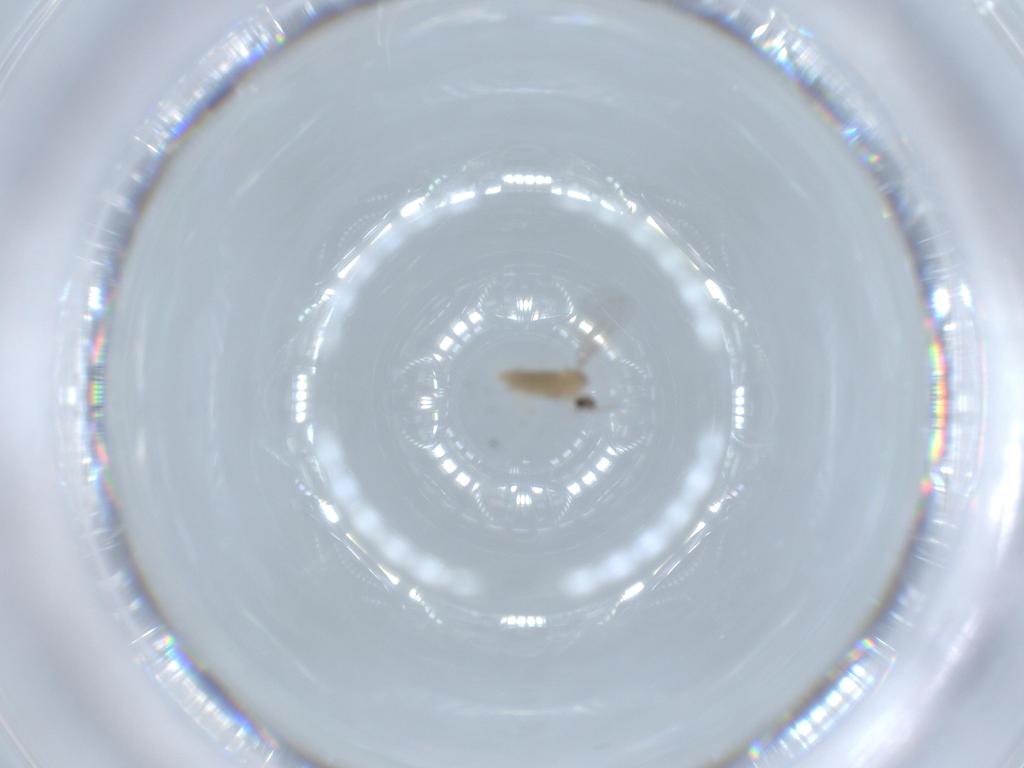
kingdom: Animalia
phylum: Arthropoda
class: Insecta
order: Diptera
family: Cecidomyiidae
